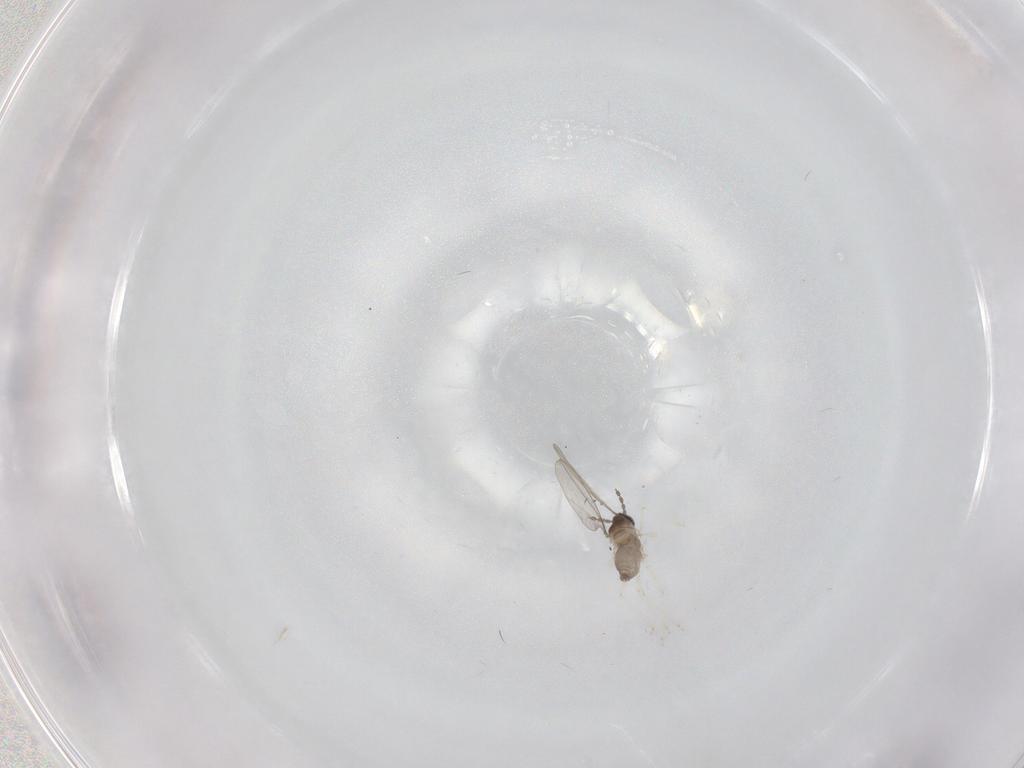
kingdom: Animalia
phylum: Arthropoda
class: Insecta
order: Diptera
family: Cecidomyiidae
